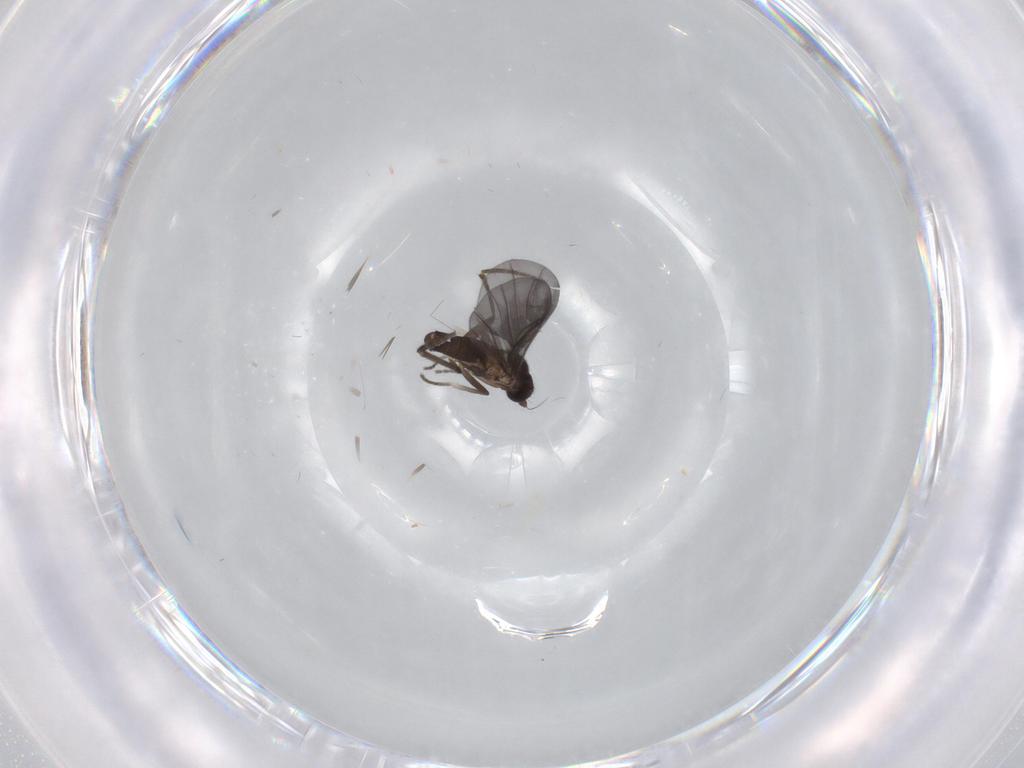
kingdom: Animalia
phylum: Arthropoda
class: Insecta
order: Diptera
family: Phoridae
